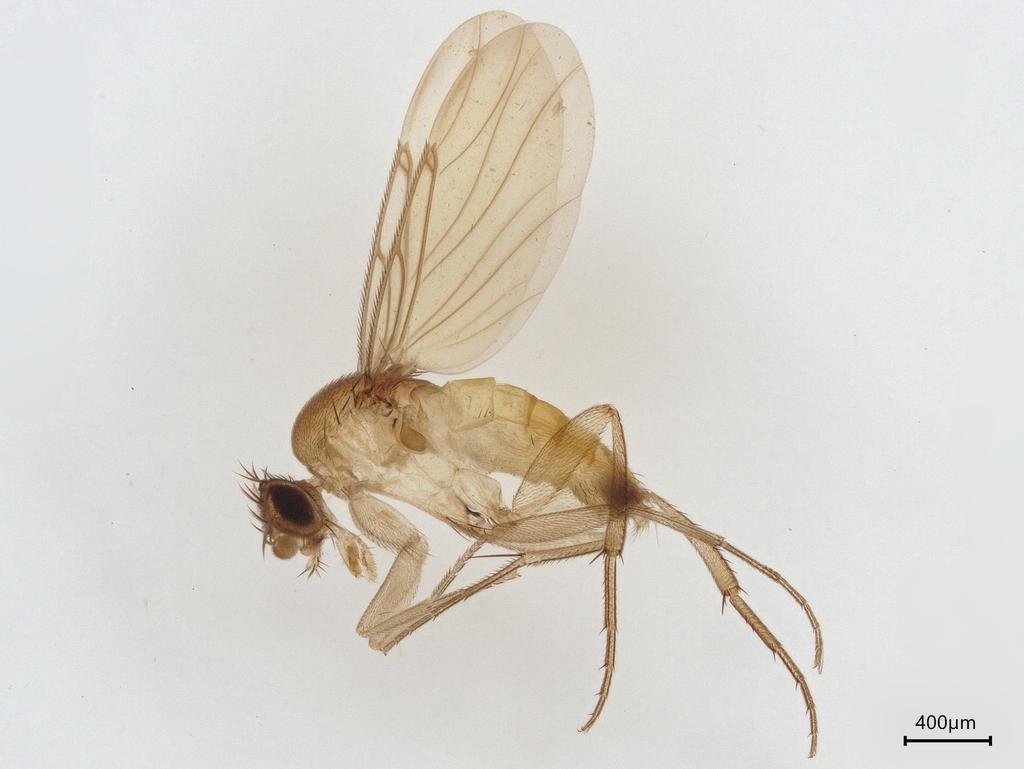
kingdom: Animalia
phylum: Arthropoda
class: Insecta
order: Diptera
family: Phoridae
